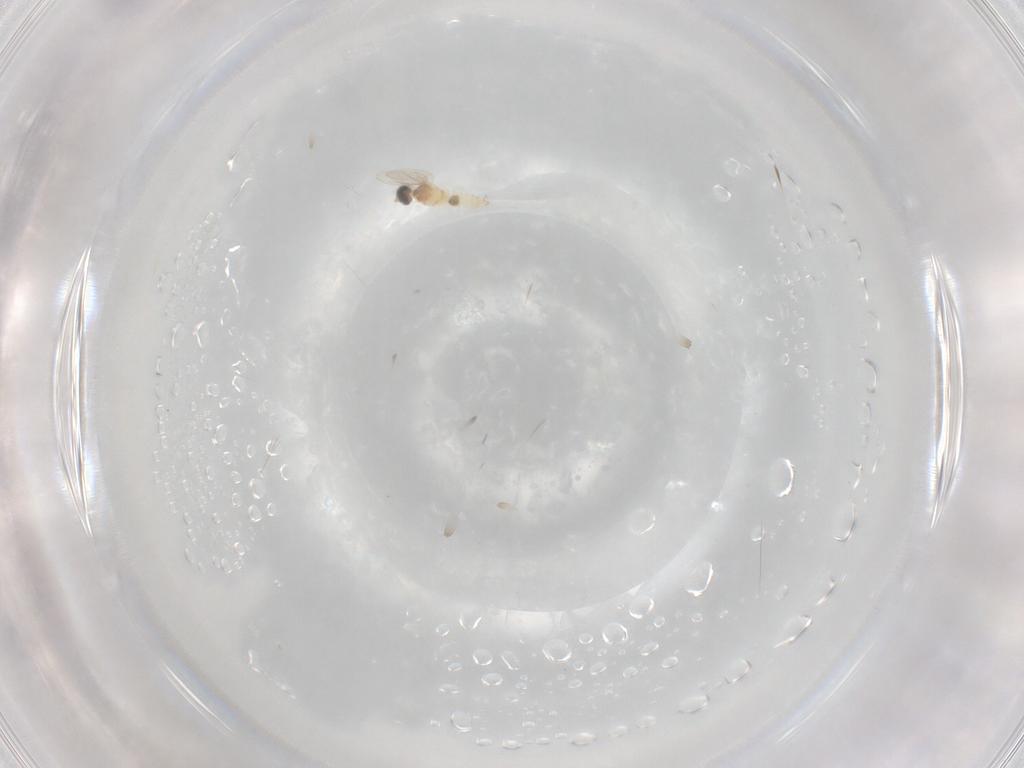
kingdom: Animalia
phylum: Arthropoda
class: Insecta
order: Diptera
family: Cecidomyiidae
